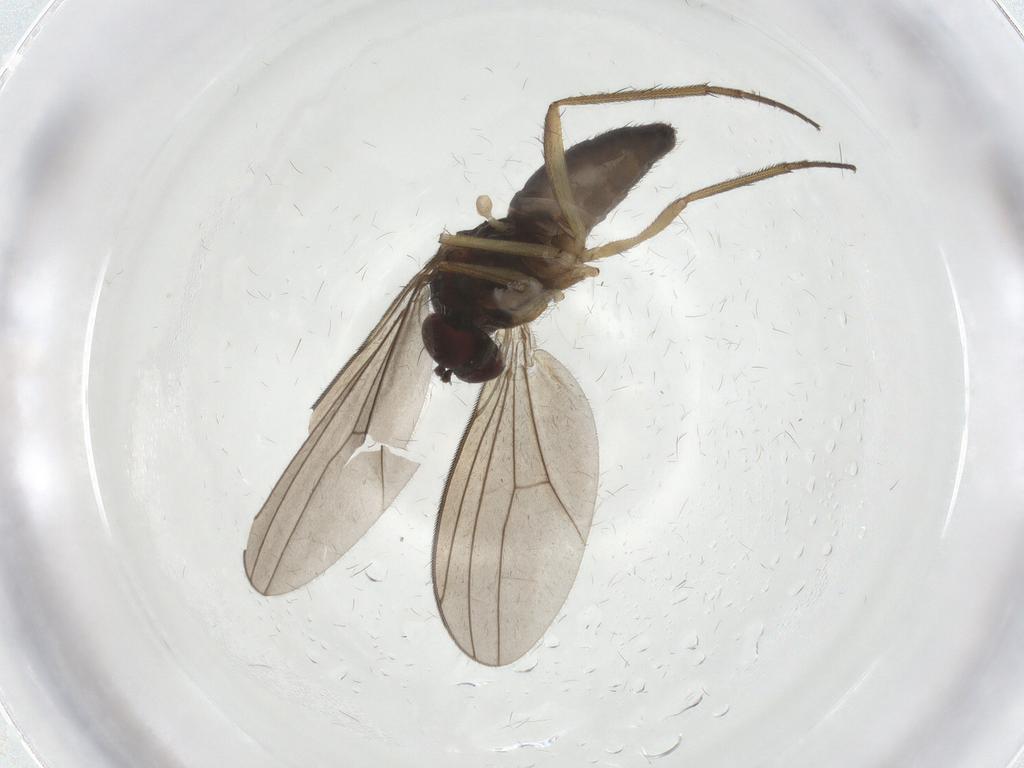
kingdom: Animalia
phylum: Arthropoda
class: Insecta
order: Diptera
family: Dolichopodidae
